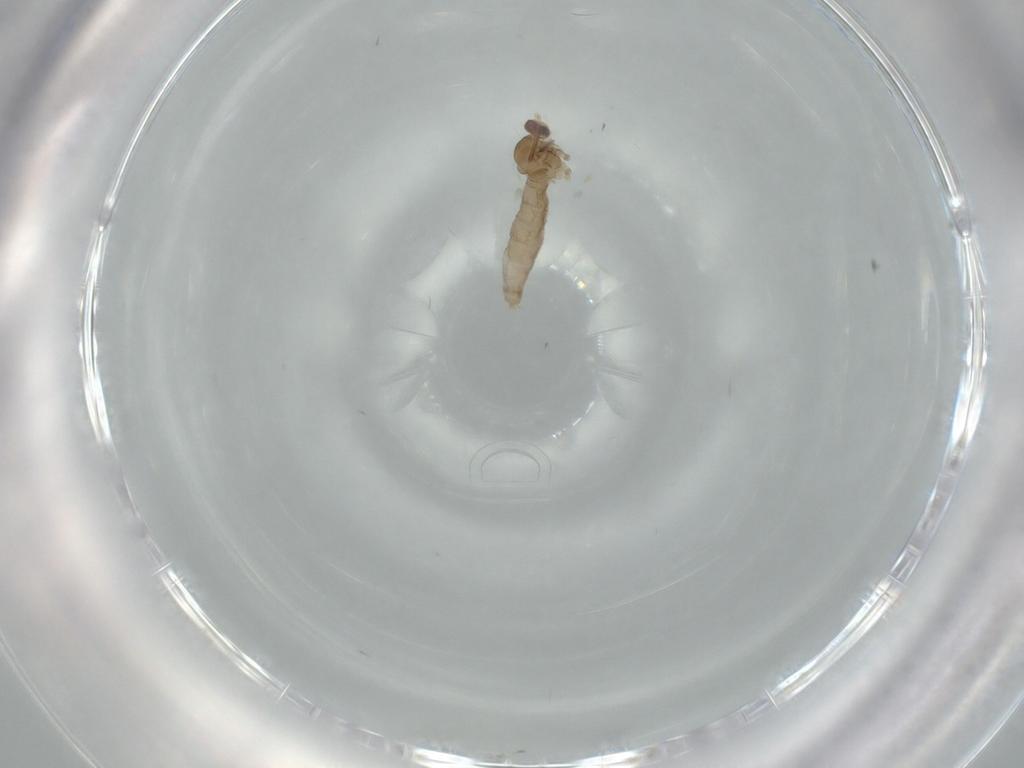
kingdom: Animalia
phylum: Arthropoda
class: Insecta
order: Diptera
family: Cecidomyiidae
